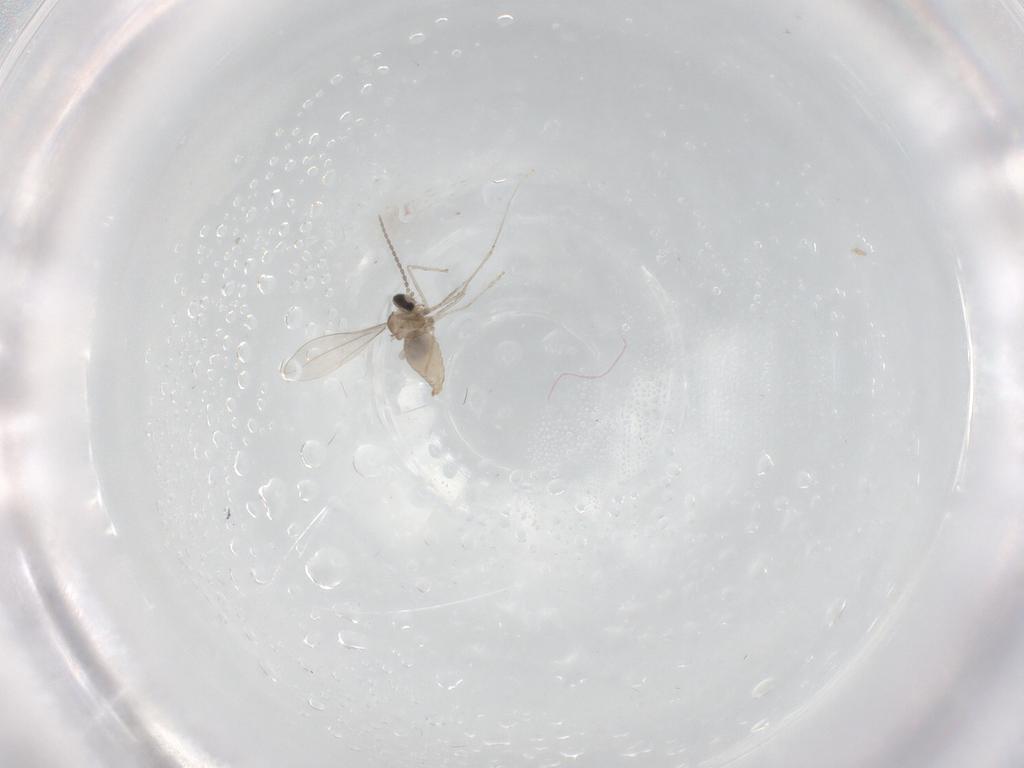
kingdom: Animalia
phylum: Arthropoda
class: Insecta
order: Diptera
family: Cecidomyiidae
